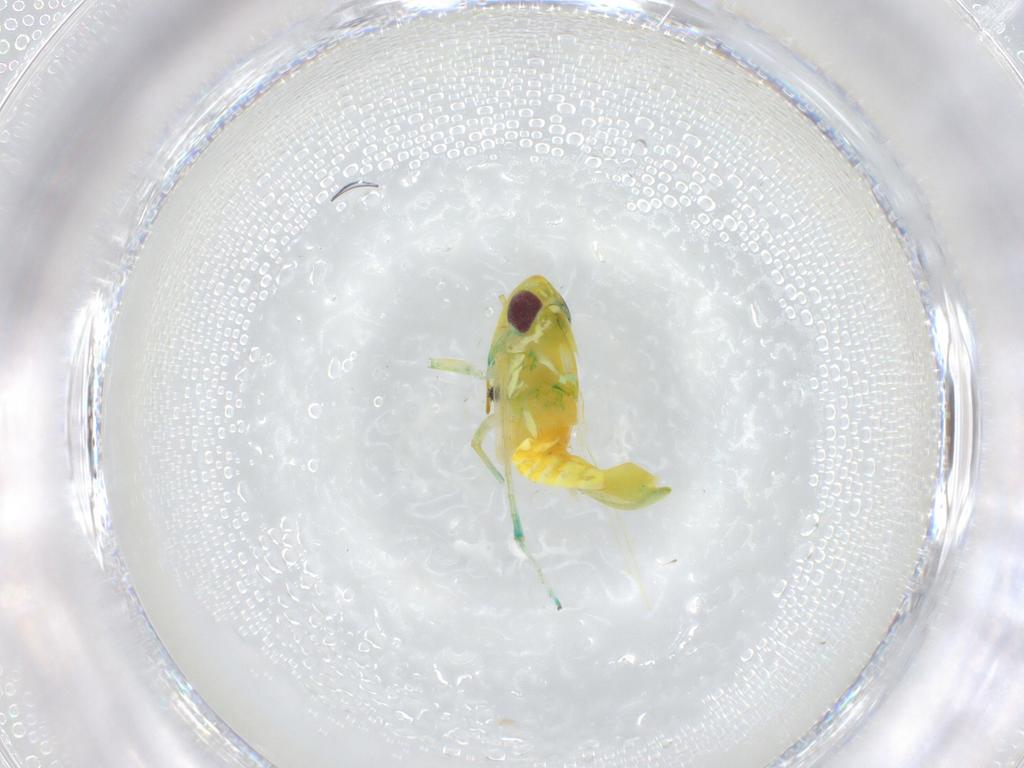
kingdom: Animalia
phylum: Arthropoda
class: Insecta
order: Hemiptera
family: Cicadellidae
